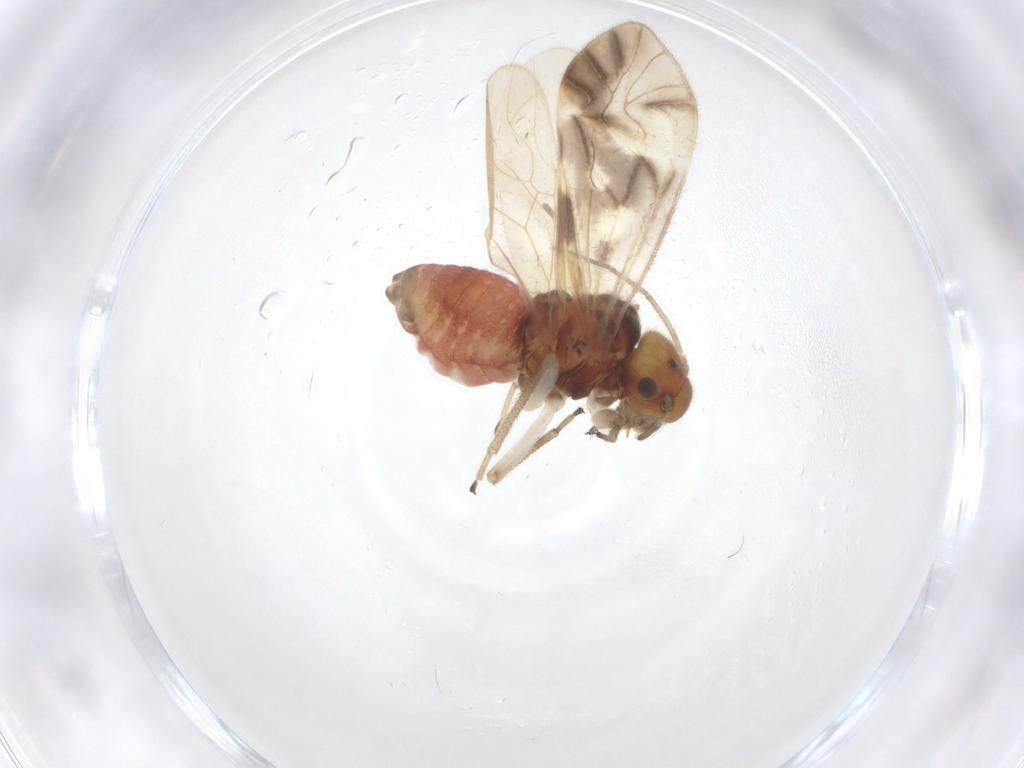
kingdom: Animalia
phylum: Arthropoda
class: Insecta
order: Psocodea
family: Caeciliusidae
